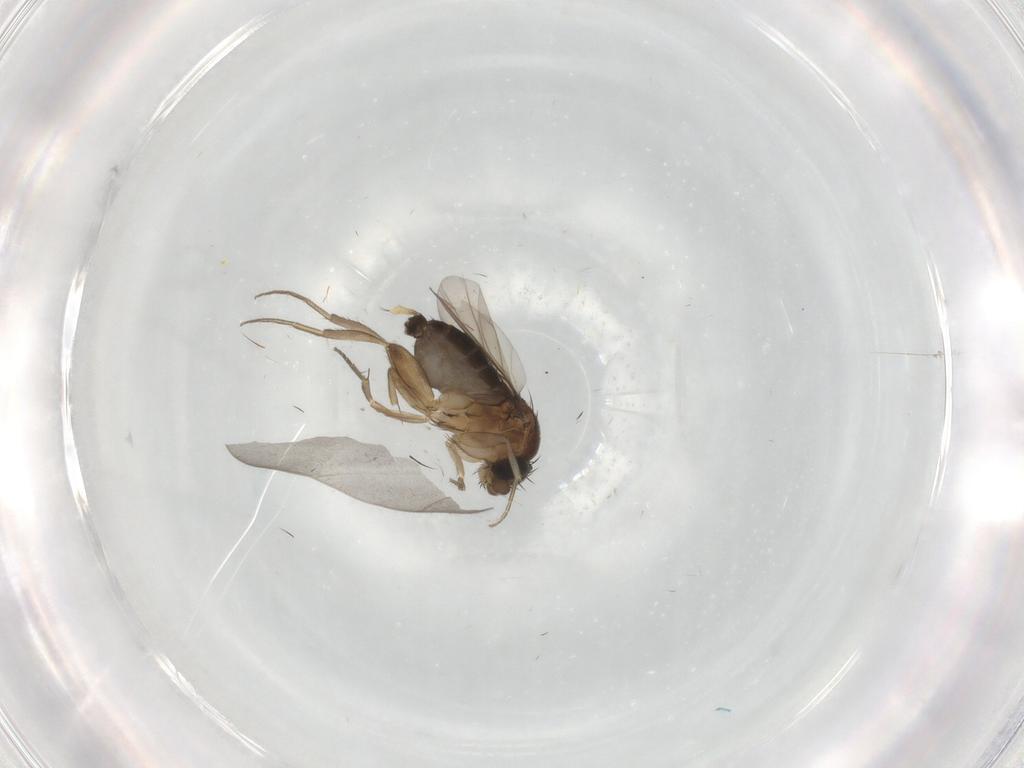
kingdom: Animalia
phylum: Arthropoda
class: Insecta
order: Diptera
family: Phoridae
